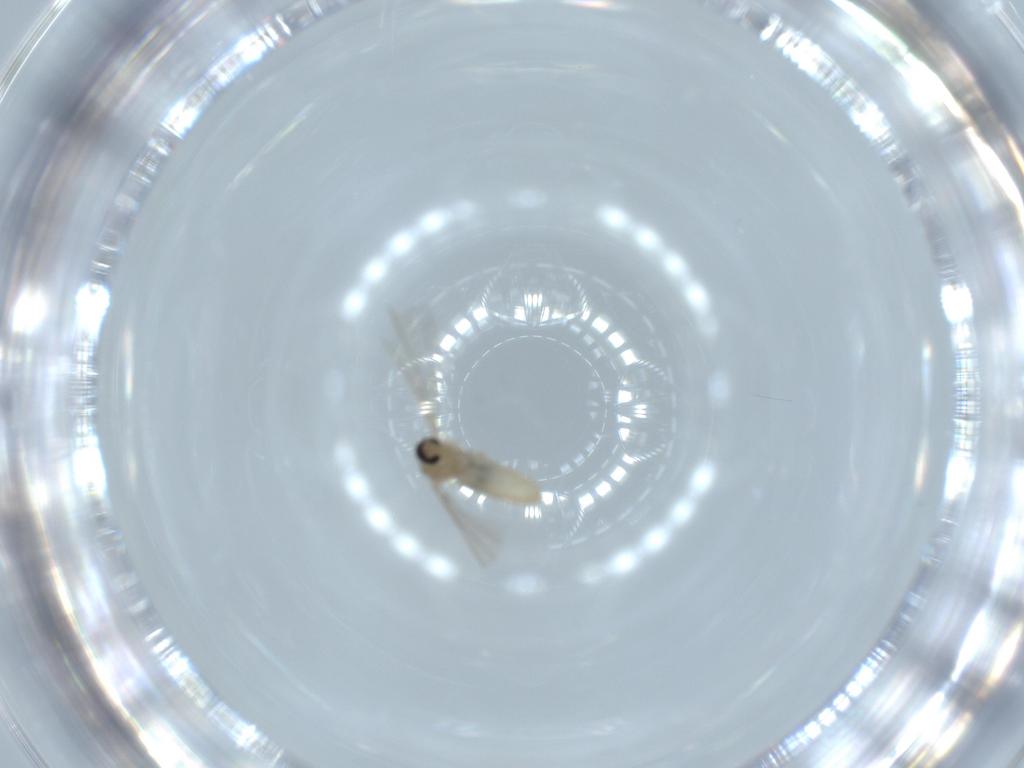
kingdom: Animalia
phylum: Arthropoda
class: Insecta
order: Diptera
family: Cecidomyiidae
